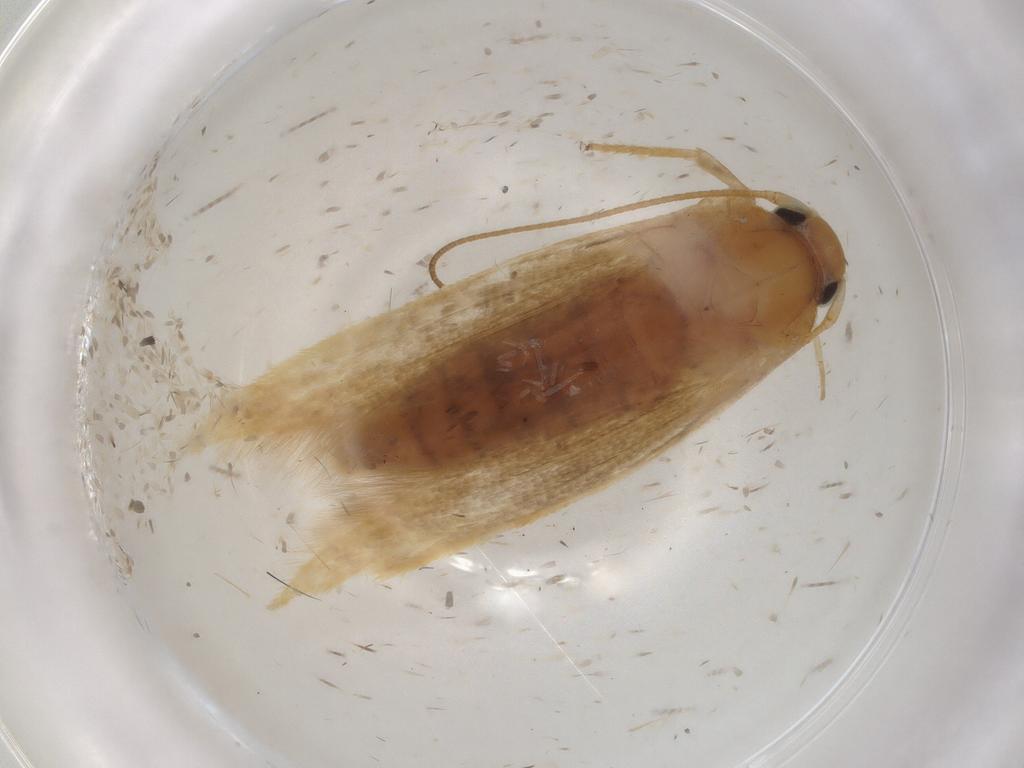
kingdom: Animalia
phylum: Arthropoda
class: Insecta
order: Lepidoptera
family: Stathmopodidae
